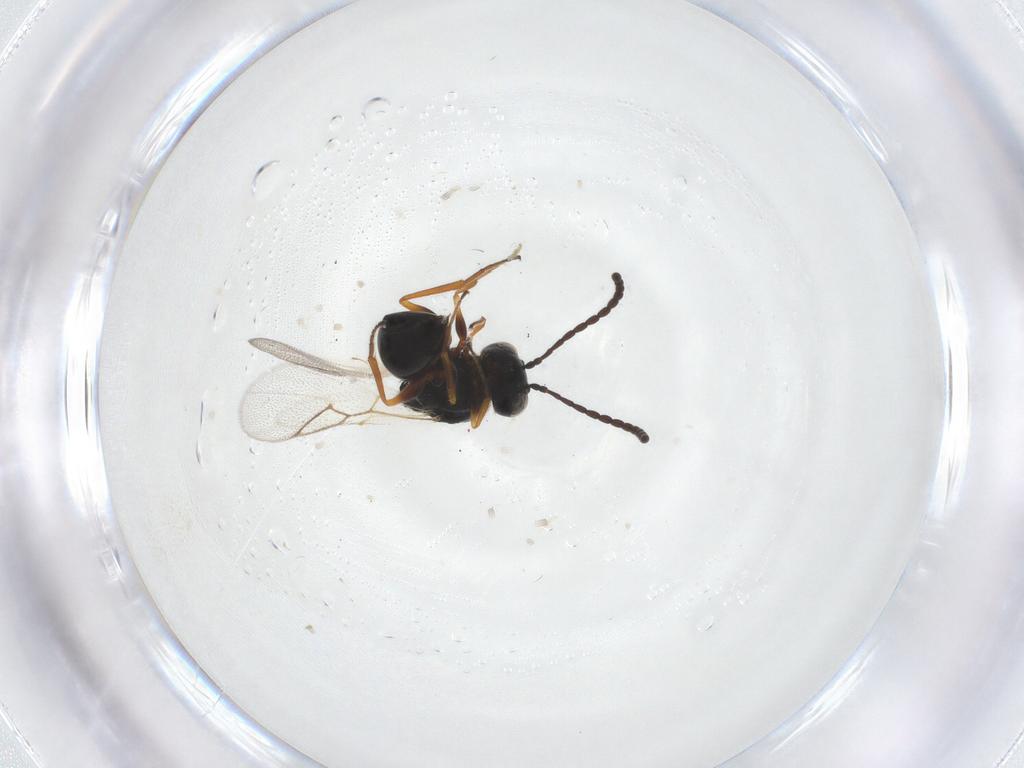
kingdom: Animalia
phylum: Arthropoda
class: Insecta
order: Hymenoptera
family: Figitidae
